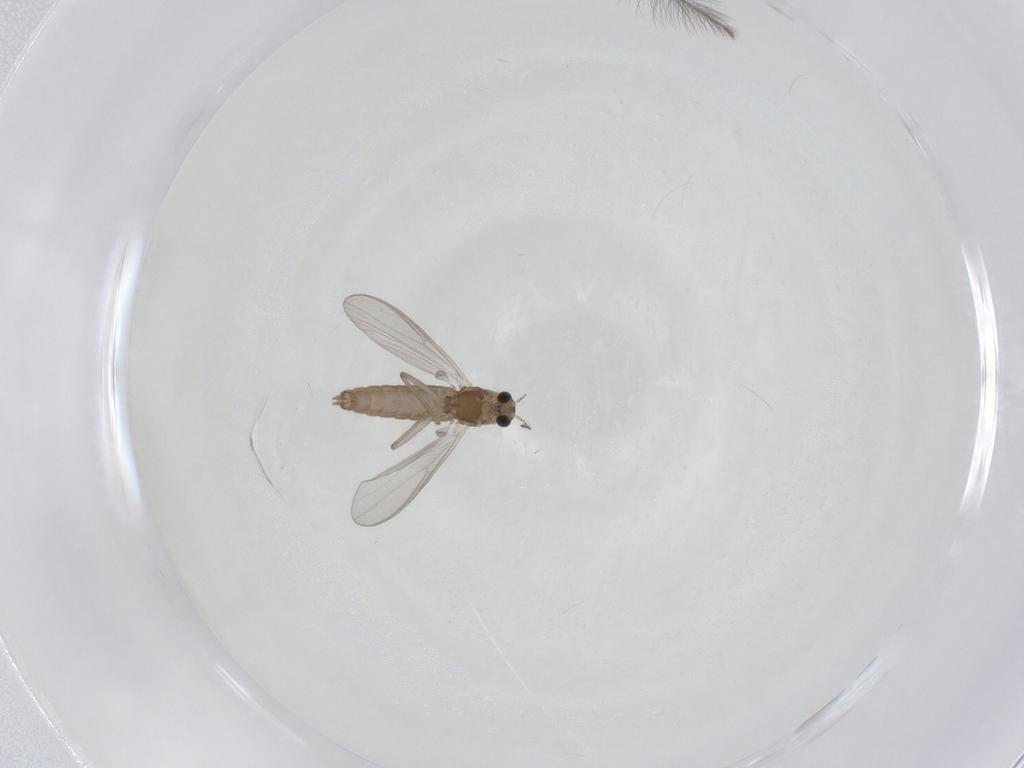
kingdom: Animalia
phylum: Arthropoda
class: Insecta
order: Diptera
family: Chironomidae
